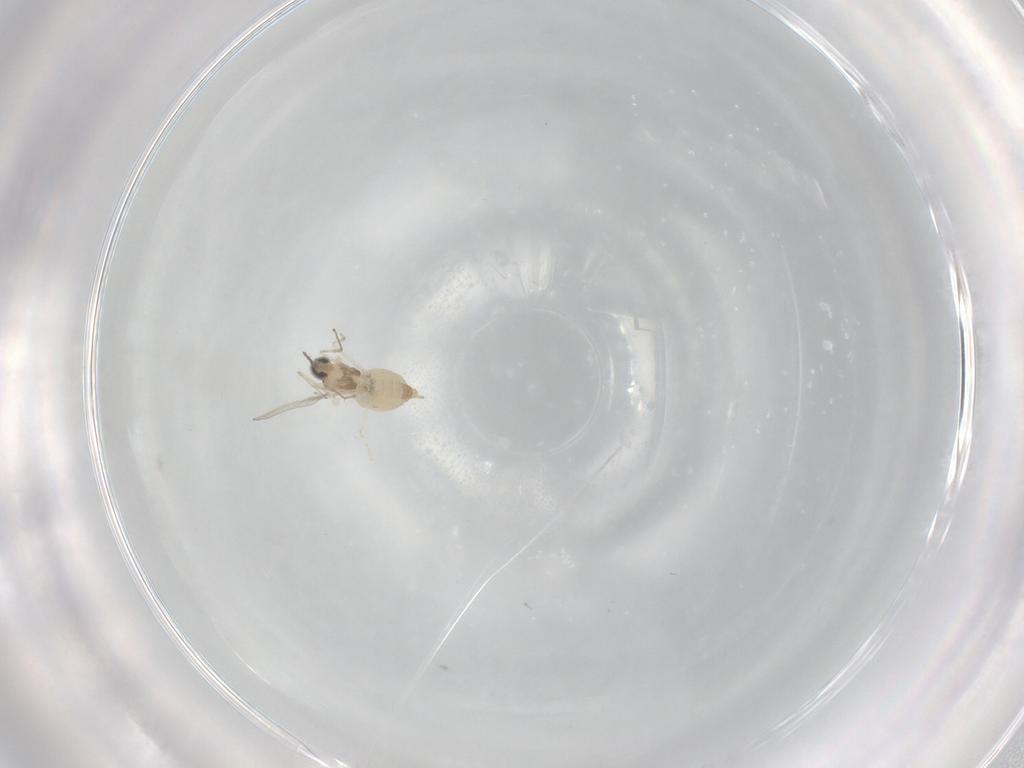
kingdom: Animalia
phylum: Arthropoda
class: Insecta
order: Diptera
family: Cecidomyiidae
